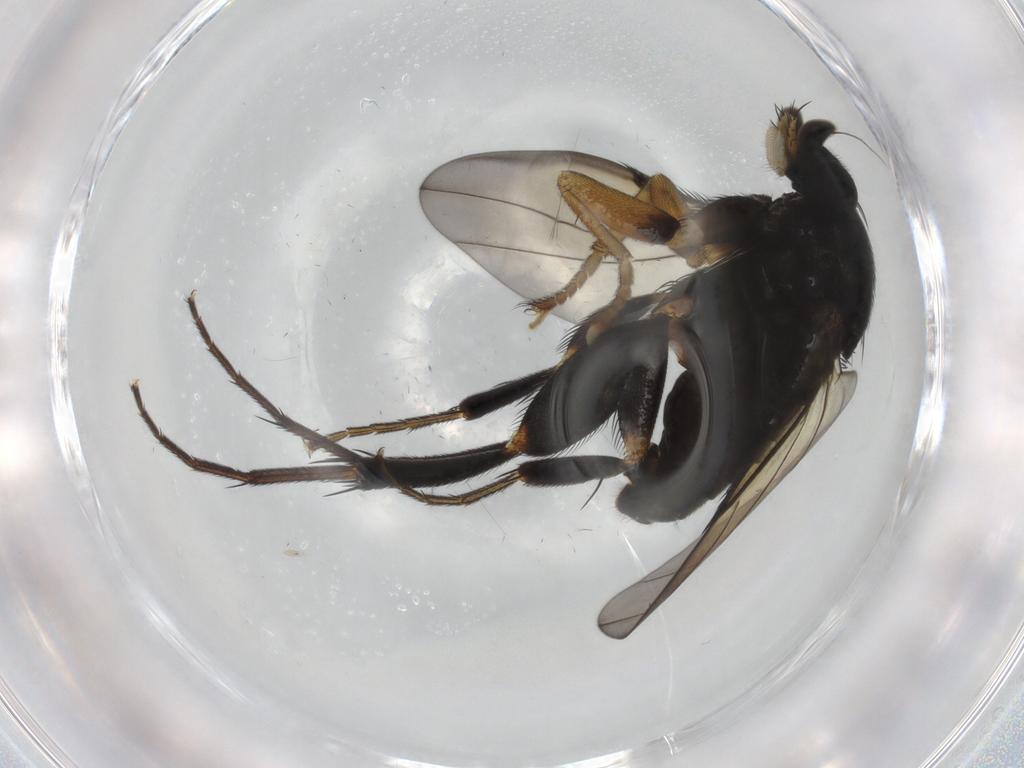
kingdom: Animalia
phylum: Arthropoda
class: Insecta
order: Diptera
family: Phoridae
